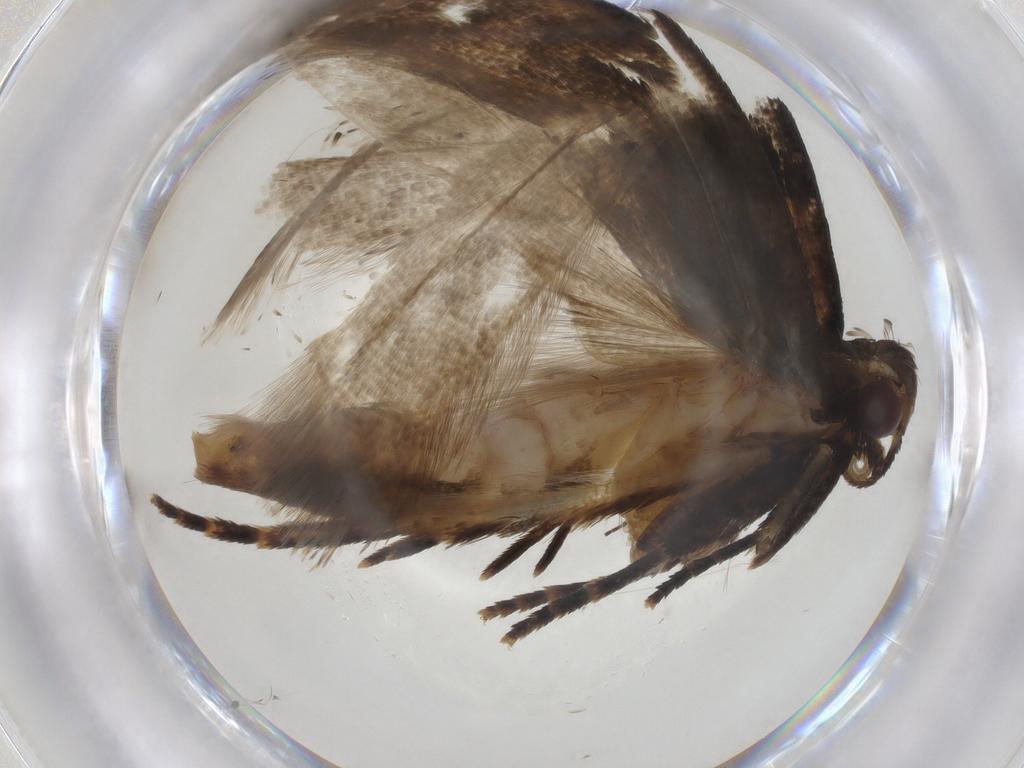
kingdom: Animalia
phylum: Arthropoda
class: Insecta
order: Lepidoptera
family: Gelechiidae
